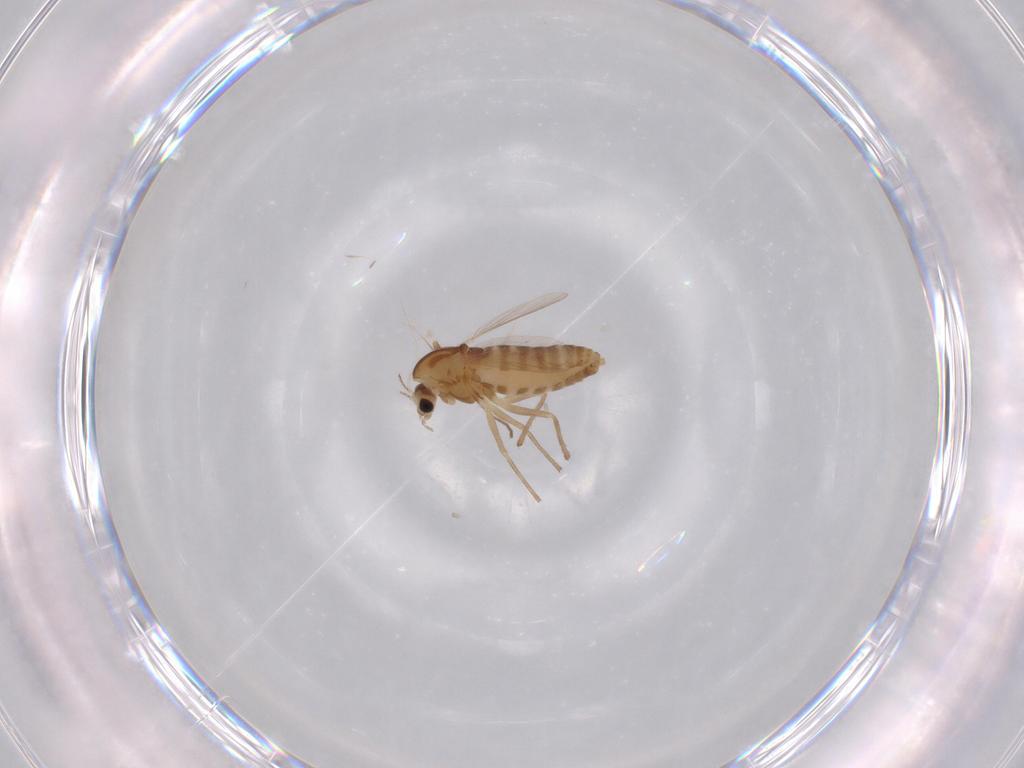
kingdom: Animalia
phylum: Arthropoda
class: Insecta
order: Diptera
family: Chironomidae
